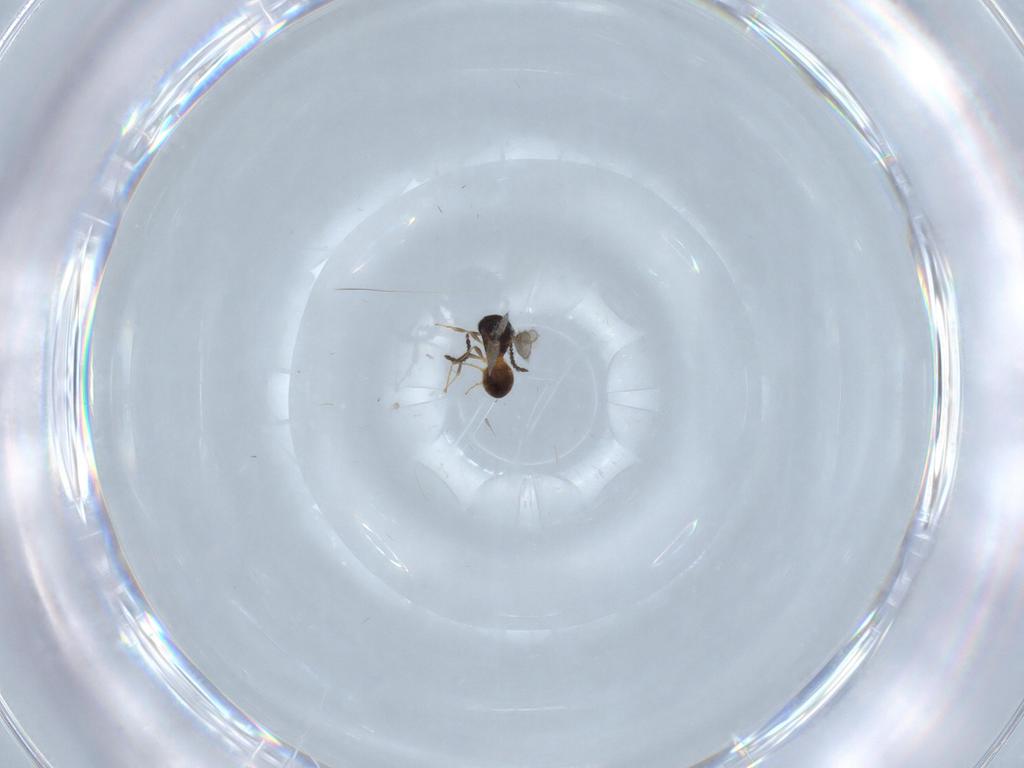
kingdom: Animalia
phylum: Arthropoda
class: Insecta
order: Hymenoptera
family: Scelionidae
